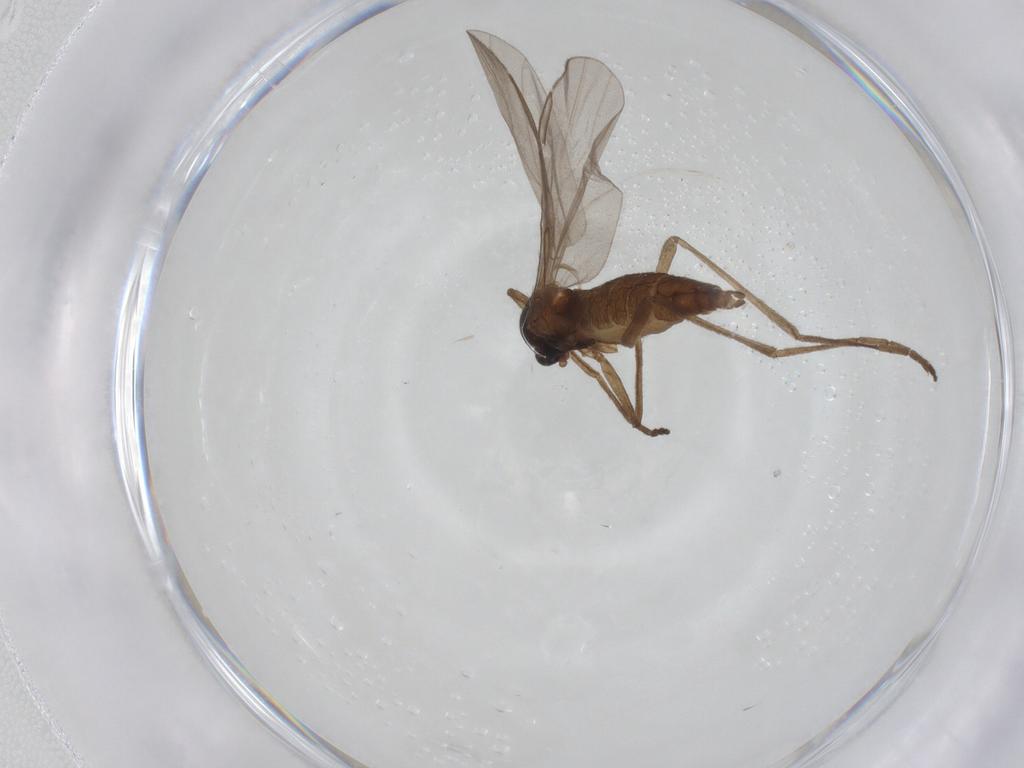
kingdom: Animalia
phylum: Arthropoda
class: Insecta
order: Diptera
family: Cecidomyiidae
